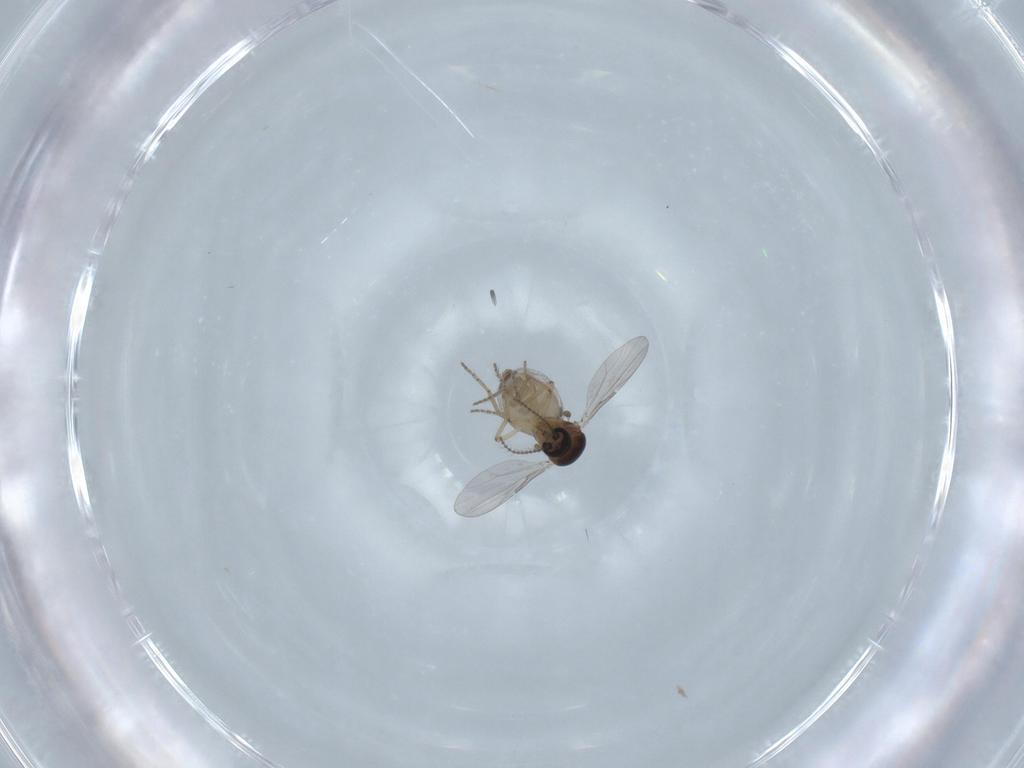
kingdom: Animalia
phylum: Arthropoda
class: Insecta
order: Diptera
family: Ceratopogonidae
